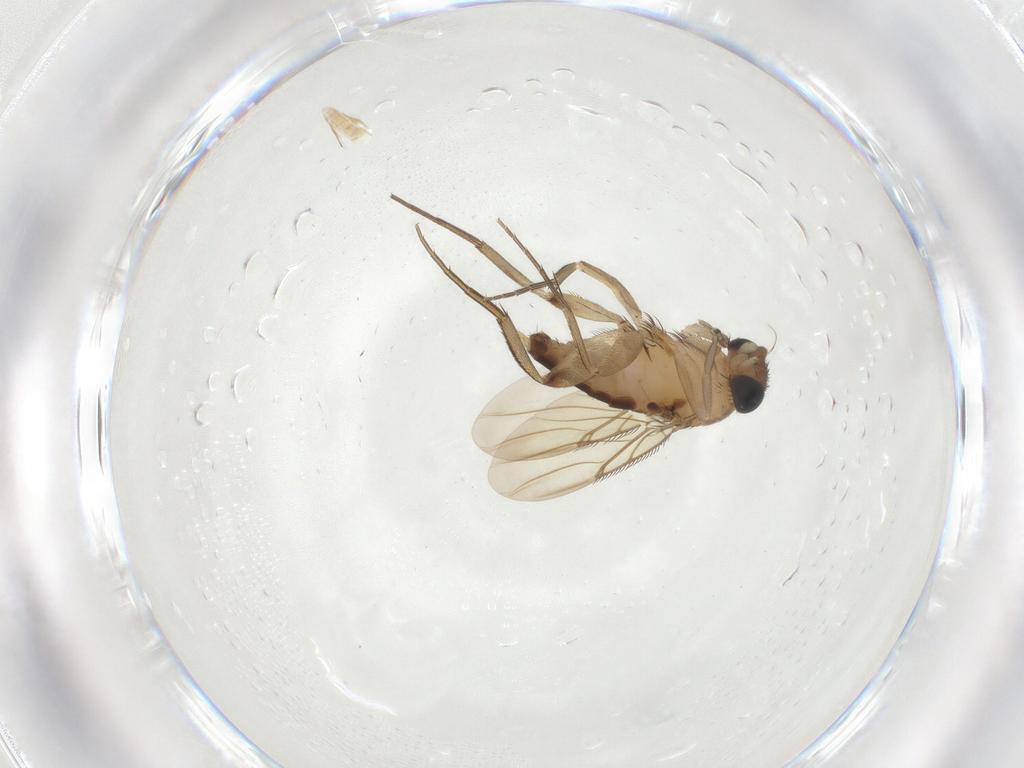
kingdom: Animalia
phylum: Arthropoda
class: Insecta
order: Diptera
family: Phoridae
